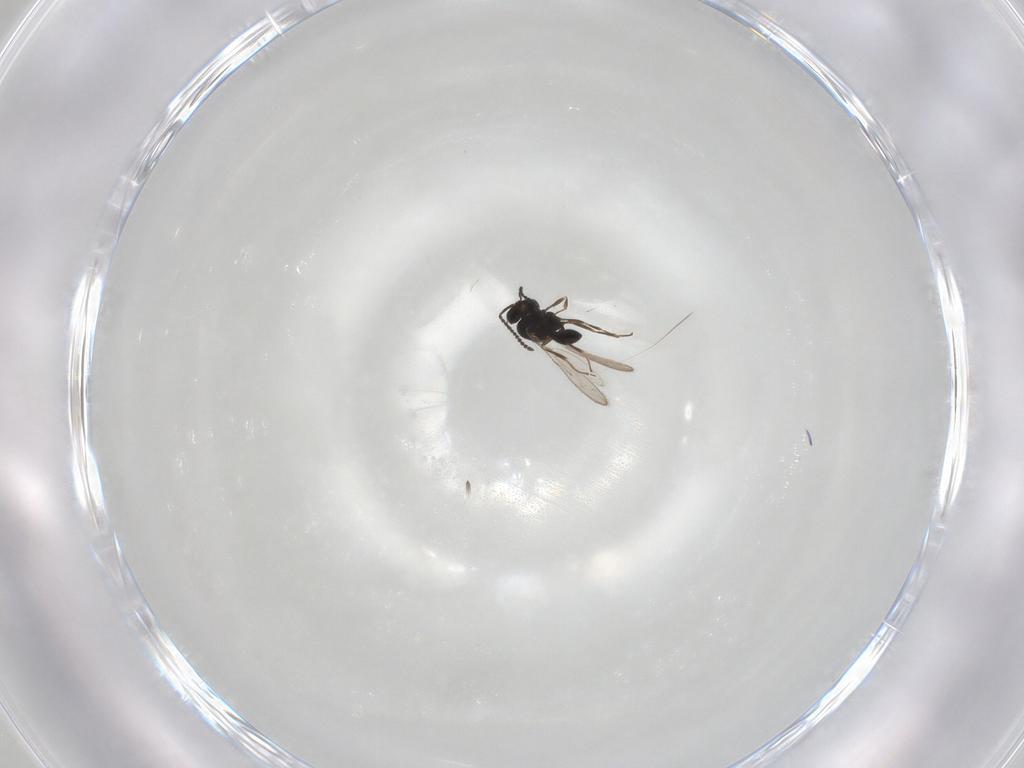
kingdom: Animalia
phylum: Arthropoda
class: Insecta
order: Hymenoptera
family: Scelionidae
